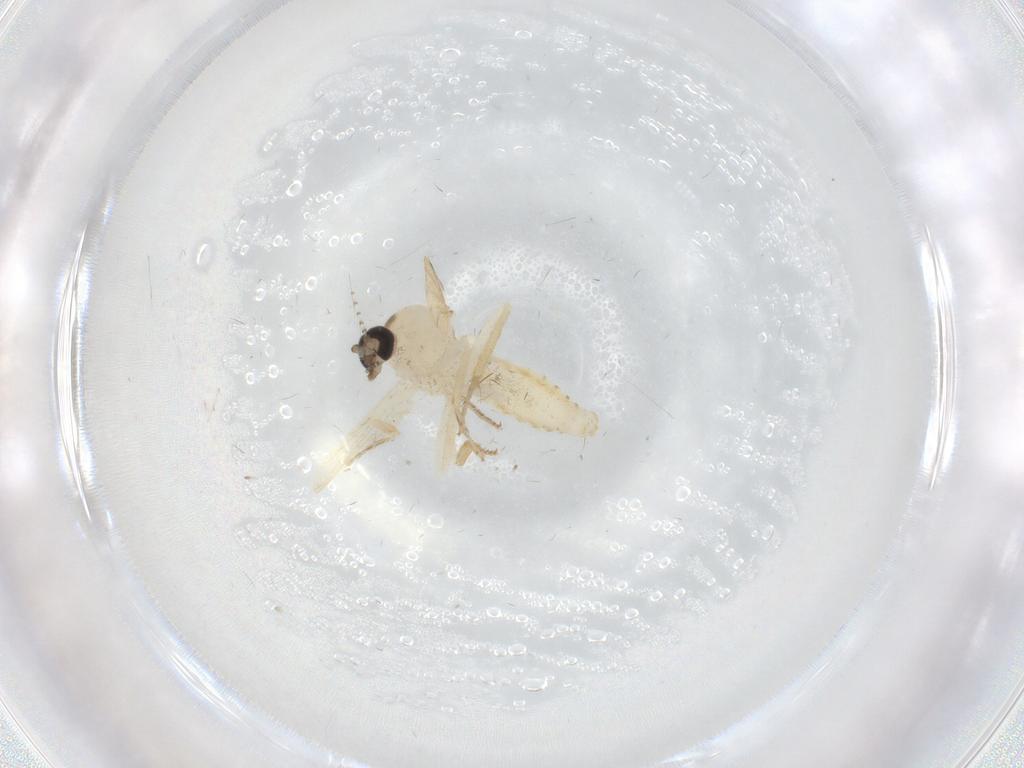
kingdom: Animalia
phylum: Arthropoda
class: Insecta
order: Diptera
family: Ceratopogonidae
